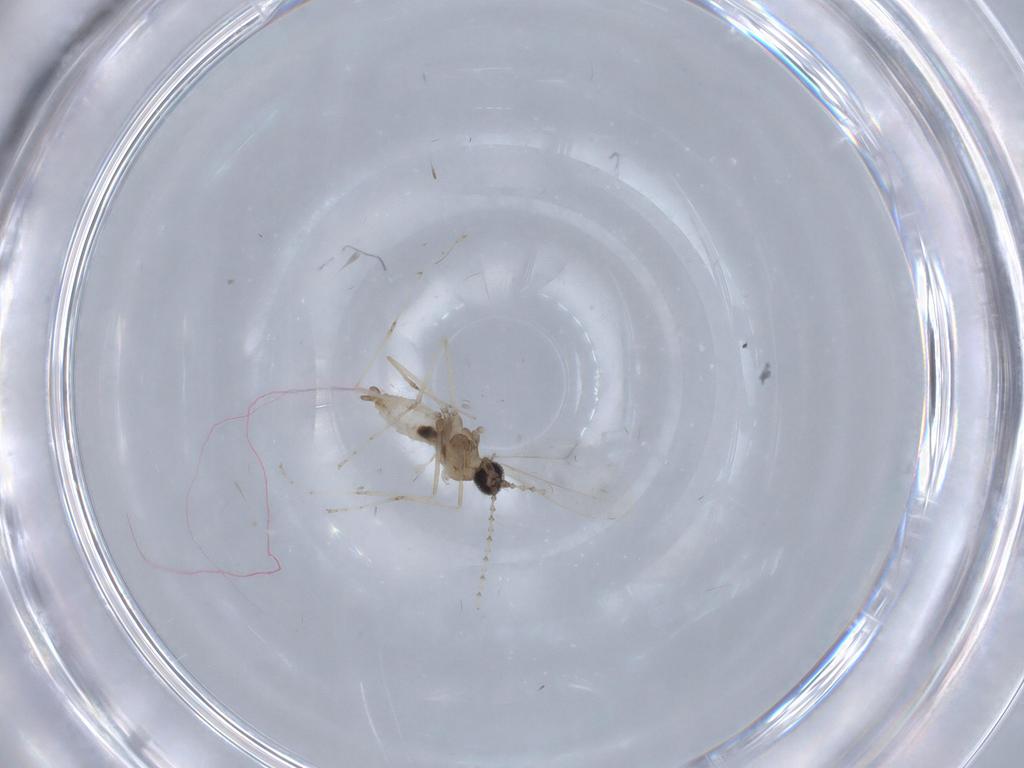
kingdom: Animalia
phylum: Arthropoda
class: Insecta
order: Diptera
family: Cecidomyiidae
